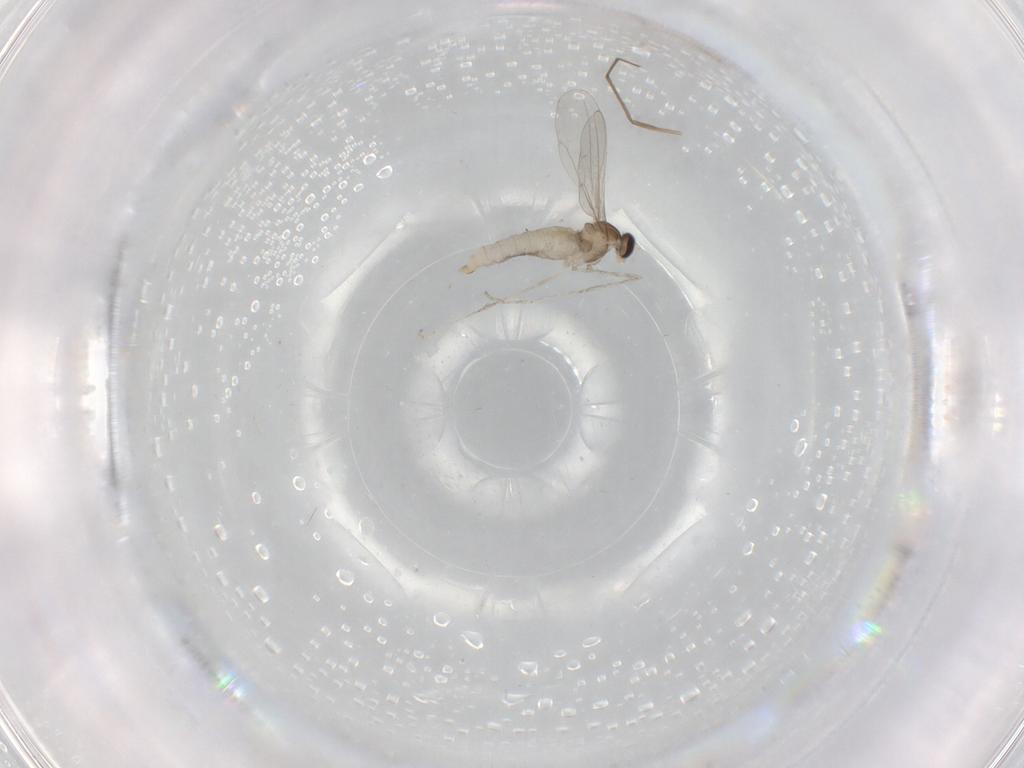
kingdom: Animalia
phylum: Arthropoda
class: Insecta
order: Diptera
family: Cecidomyiidae
